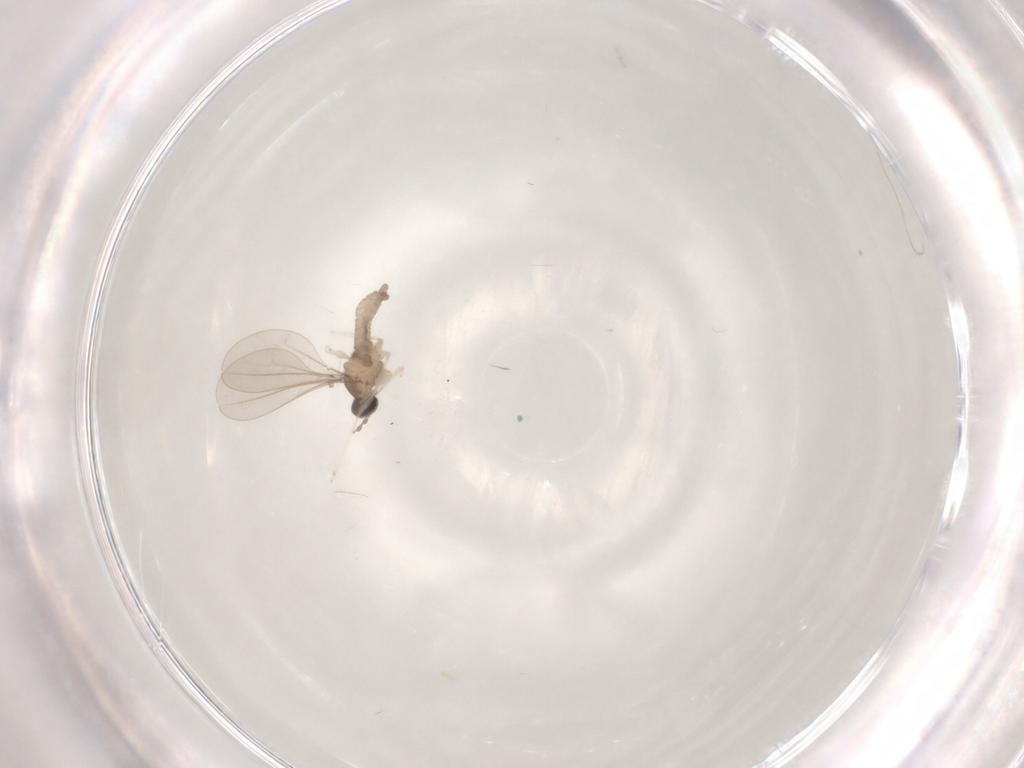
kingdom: Animalia
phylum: Arthropoda
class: Insecta
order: Diptera
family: Cecidomyiidae
